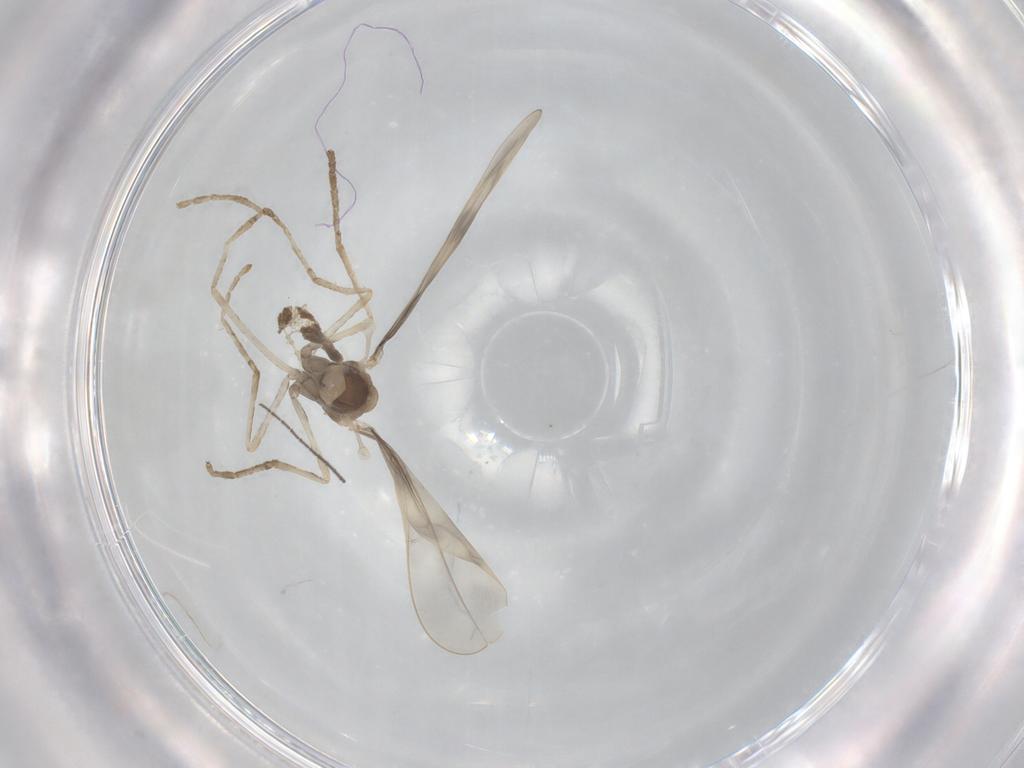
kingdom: Animalia
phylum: Arthropoda
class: Insecta
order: Diptera
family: Cecidomyiidae
